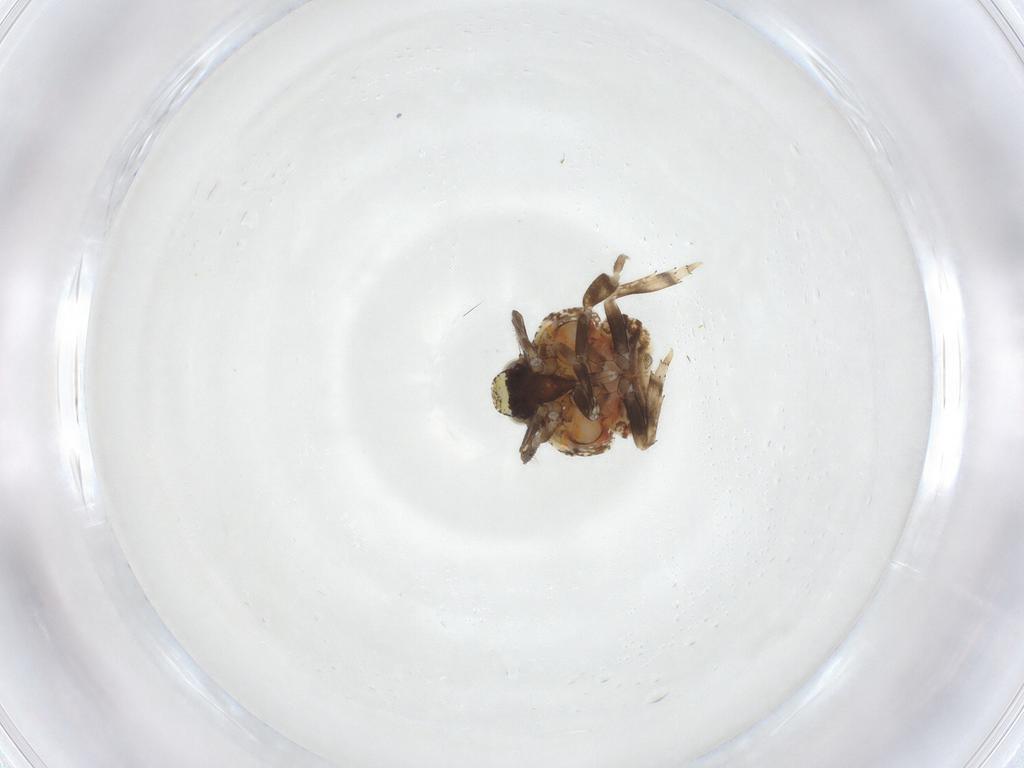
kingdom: Animalia
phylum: Arthropoda
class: Insecta
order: Hemiptera
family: Issidae
